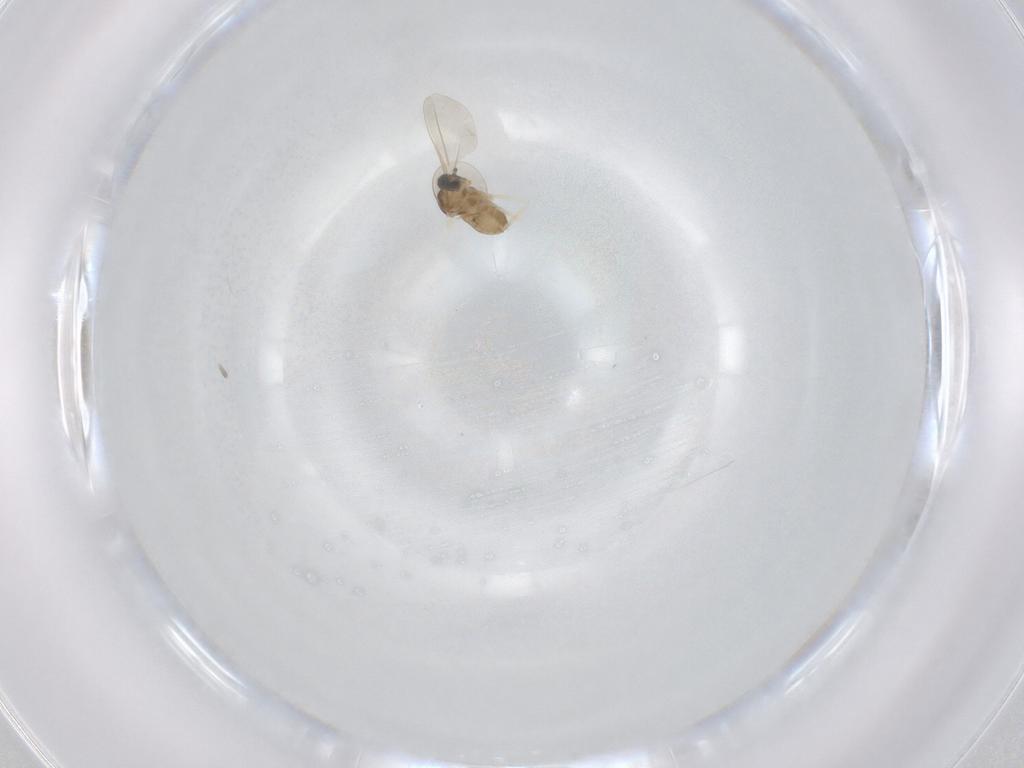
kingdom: Animalia
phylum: Arthropoda
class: Insecta
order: Diptera
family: Cecidomyiidae
